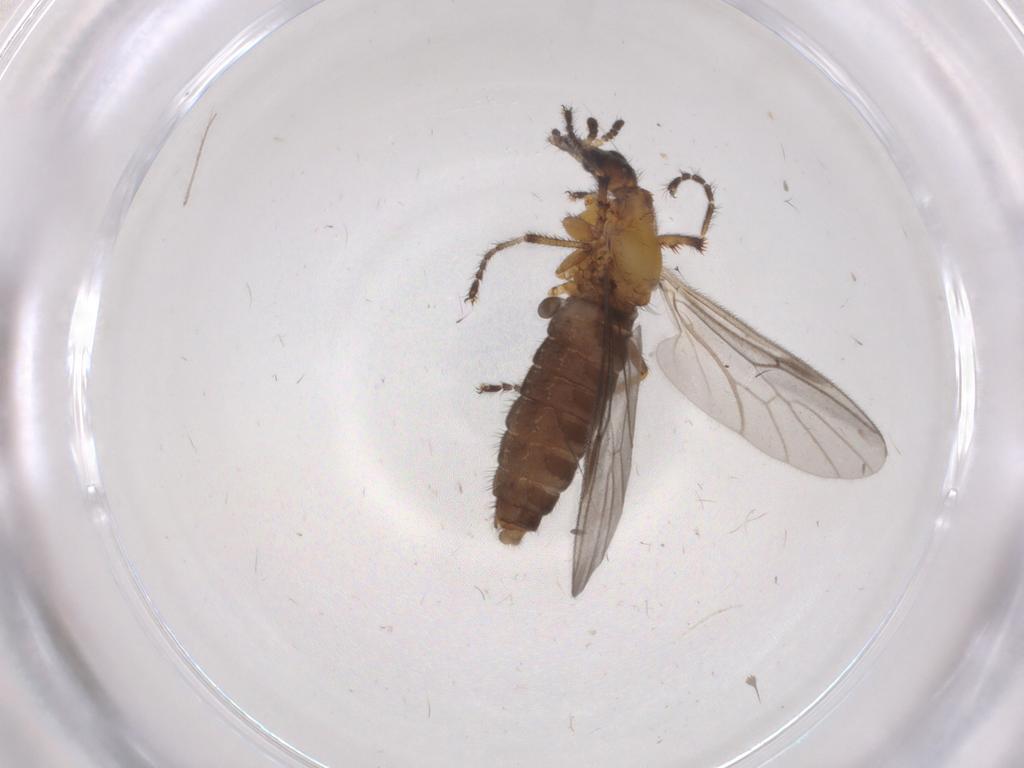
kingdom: Animalia
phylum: Arthropoda
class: Insecta
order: Diptera
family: Bibionidae
